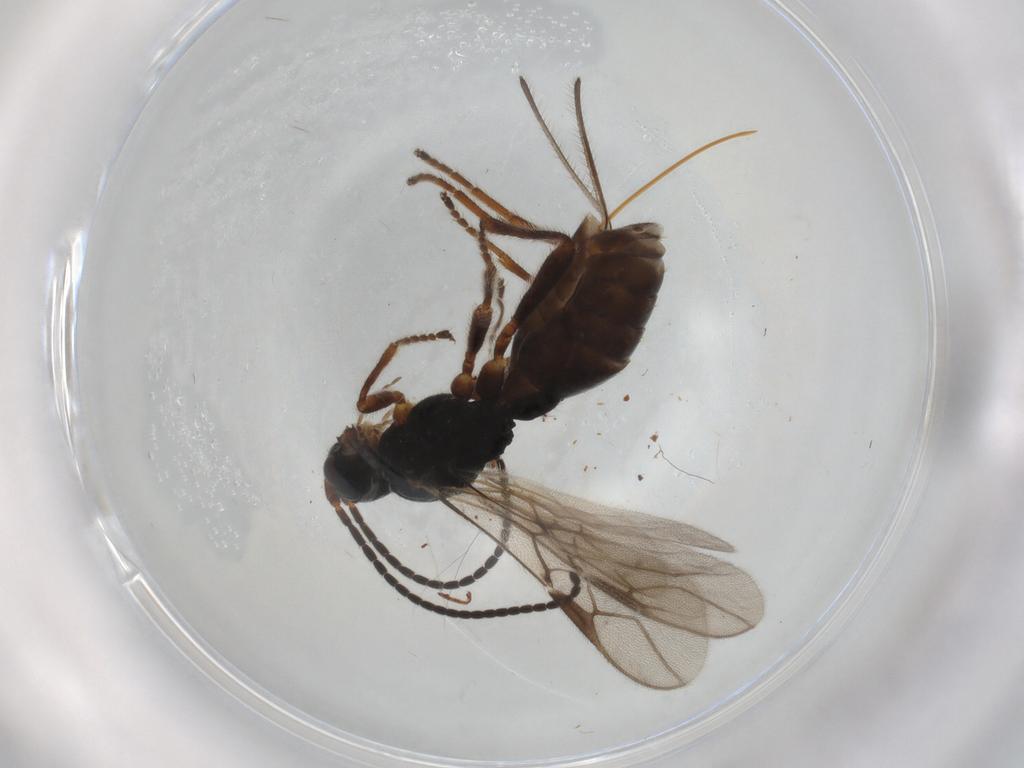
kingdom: Animalia
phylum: Arthropoda
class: Insecta
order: Hymenoptera
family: Braconidae
